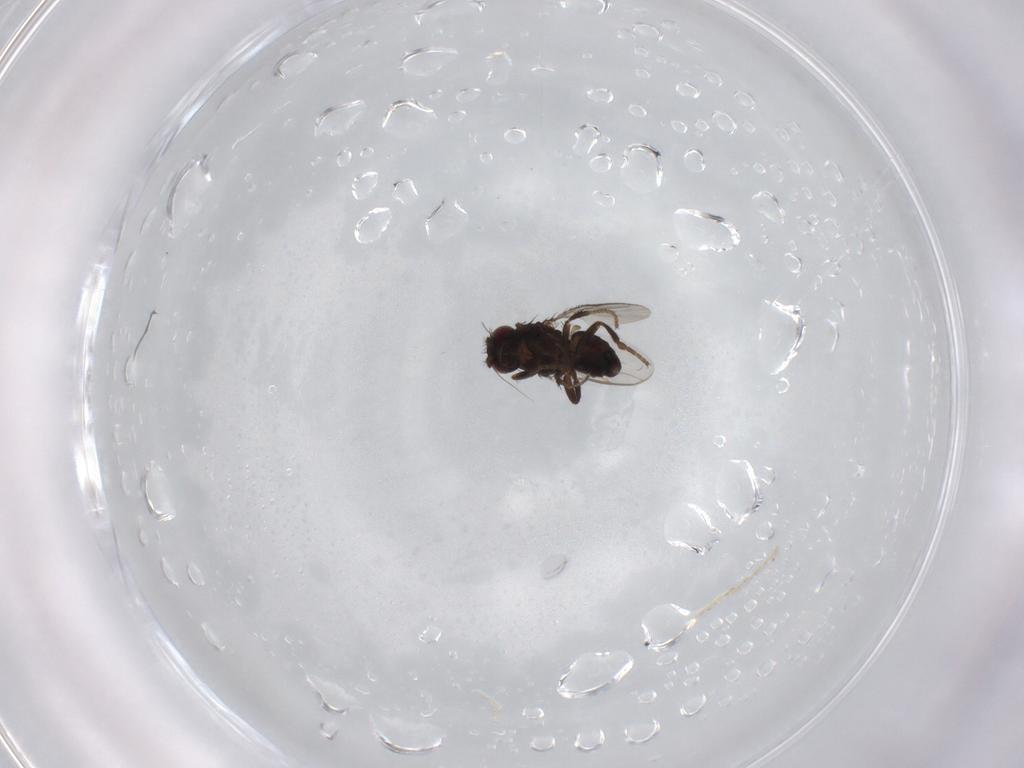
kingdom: Animalia
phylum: Arthropoda
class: Insecta
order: Diptera
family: Sphaeroceridae
